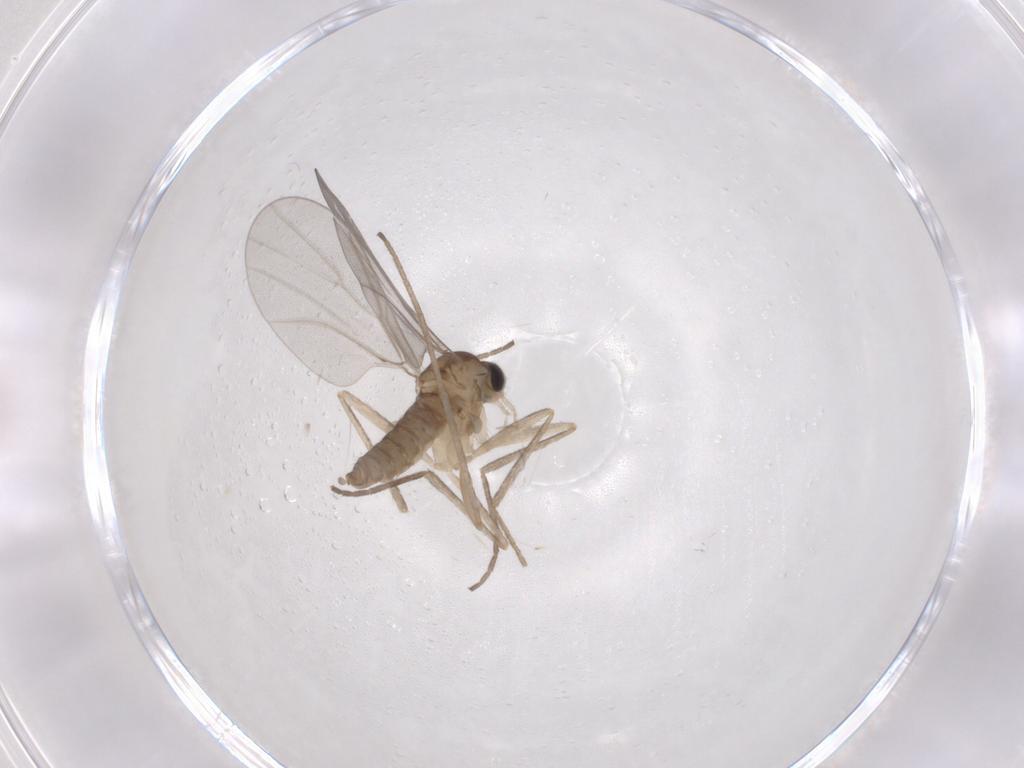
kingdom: Animalia
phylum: Arthropoda
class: Insecta
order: Diptera
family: Cecidomyiidae
